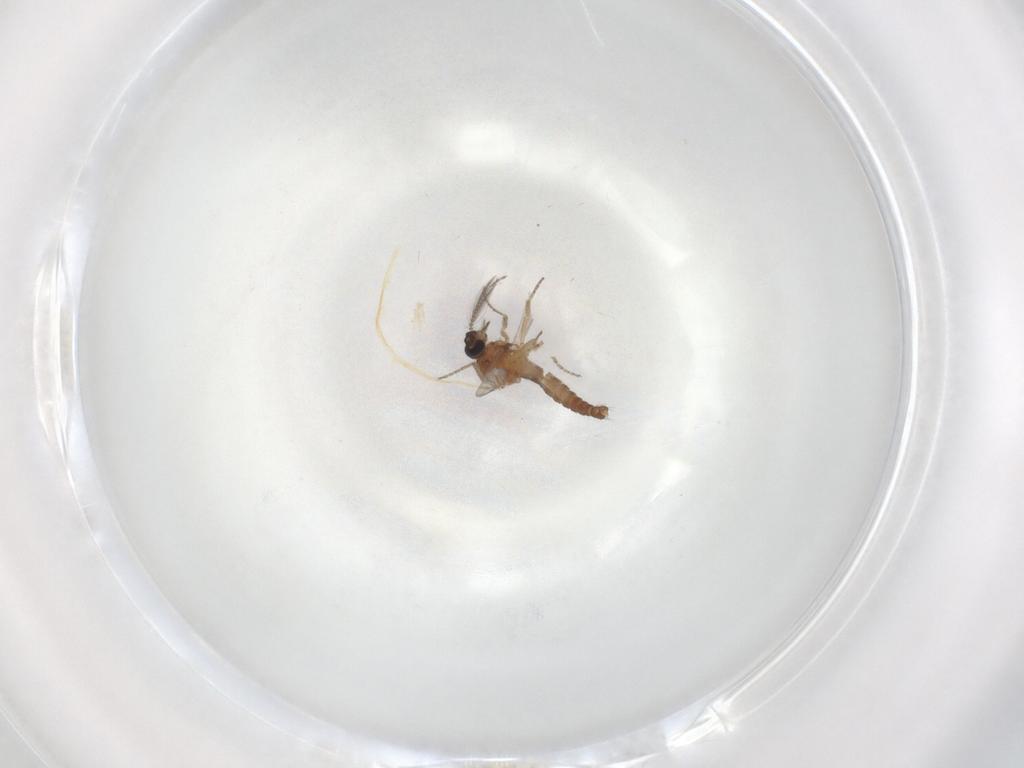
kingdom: Animalia
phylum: Arthropoda
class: Insecta
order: Diptera
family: Ceratopogonidae
